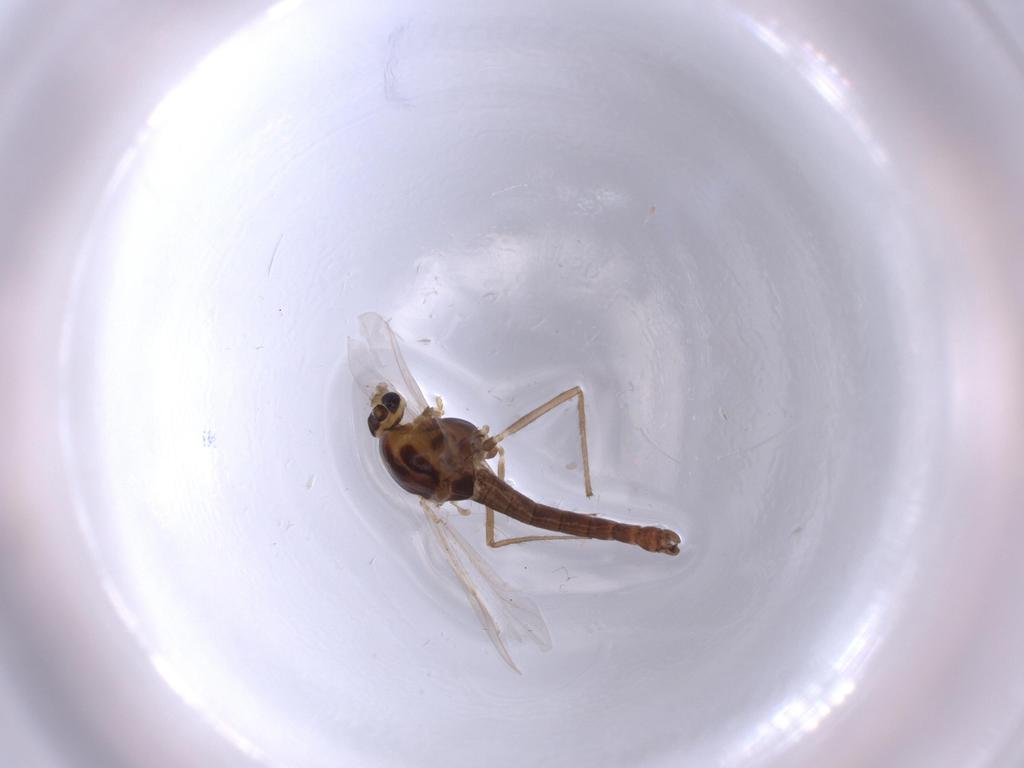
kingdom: Animalia
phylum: Arthropoda
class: Insecta
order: Diptera
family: Chironomidae
